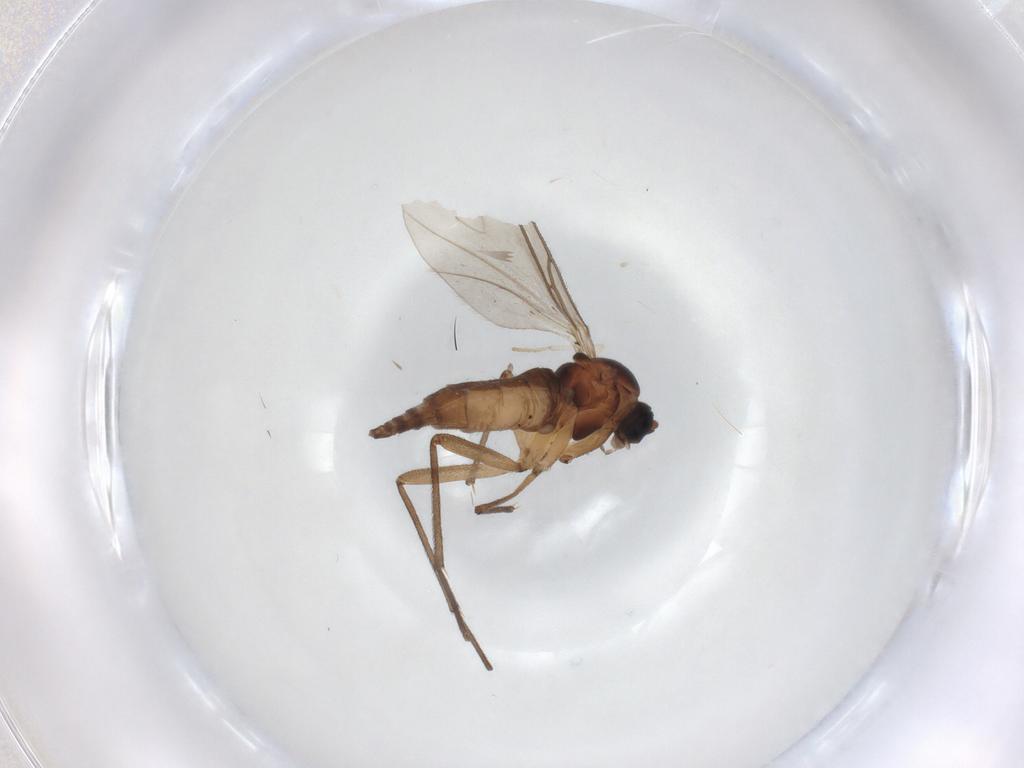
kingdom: Animalia
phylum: Arthropoda
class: Insecta
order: Diptera
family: Sciaridae
